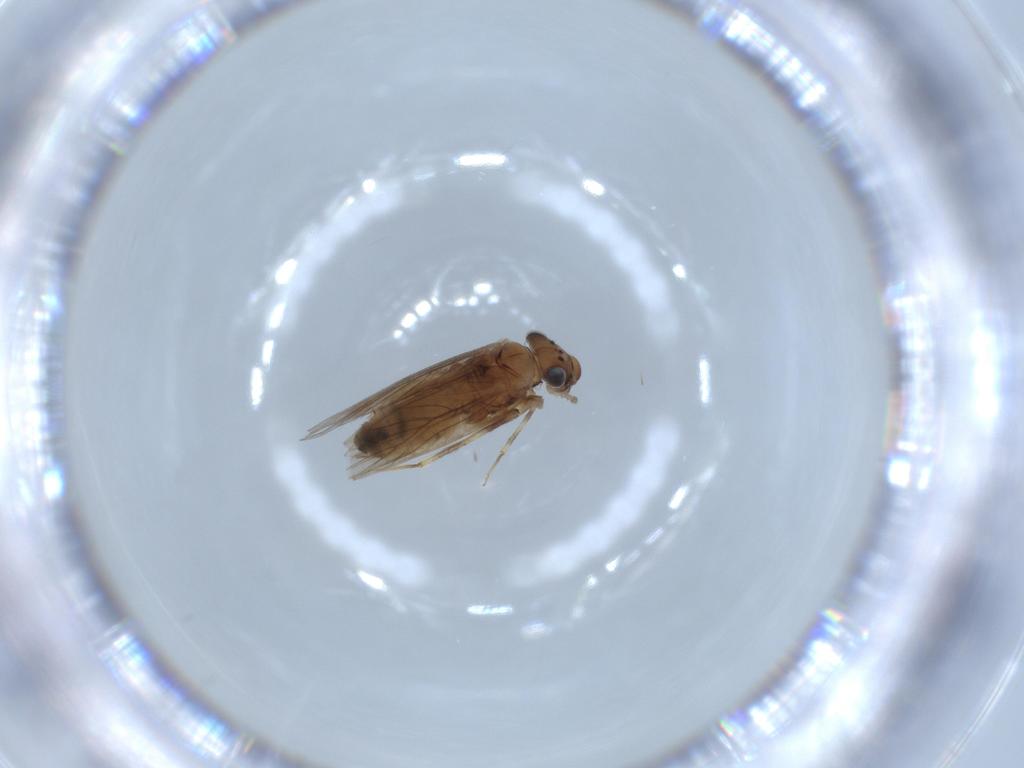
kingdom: Animalia
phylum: Arthropoda
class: Insecta
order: Psocodea
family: Lepidopsocidae
